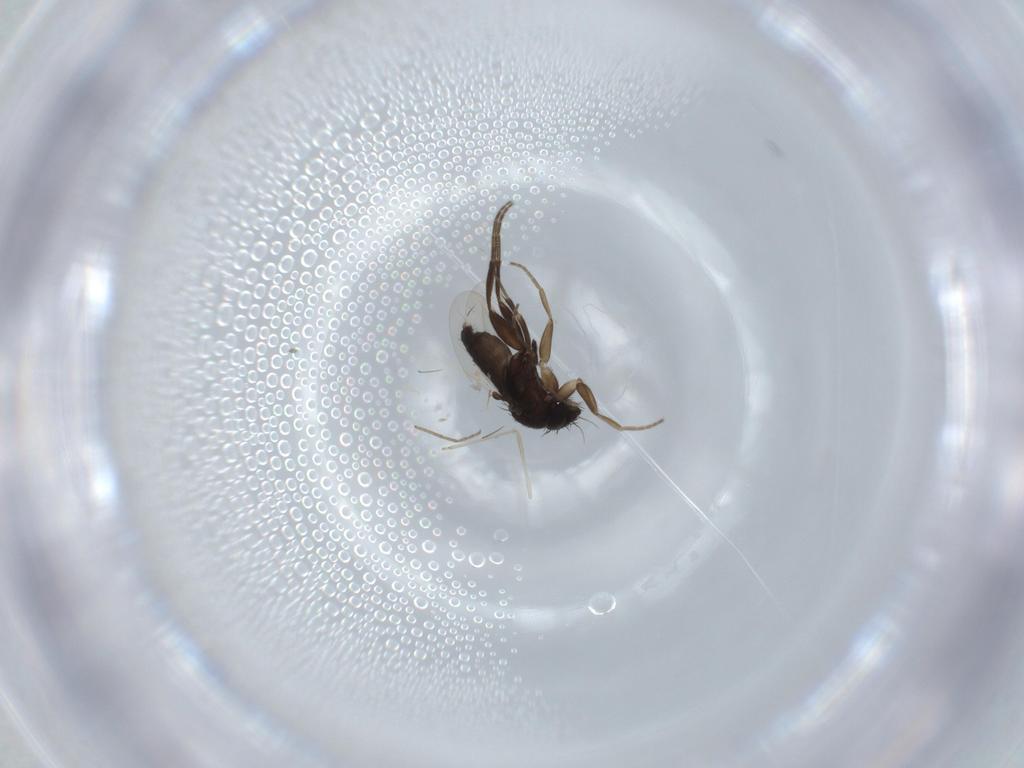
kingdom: Animalia
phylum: Arthropoda
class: Insecta
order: Diptera
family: Cecidomyiidae
